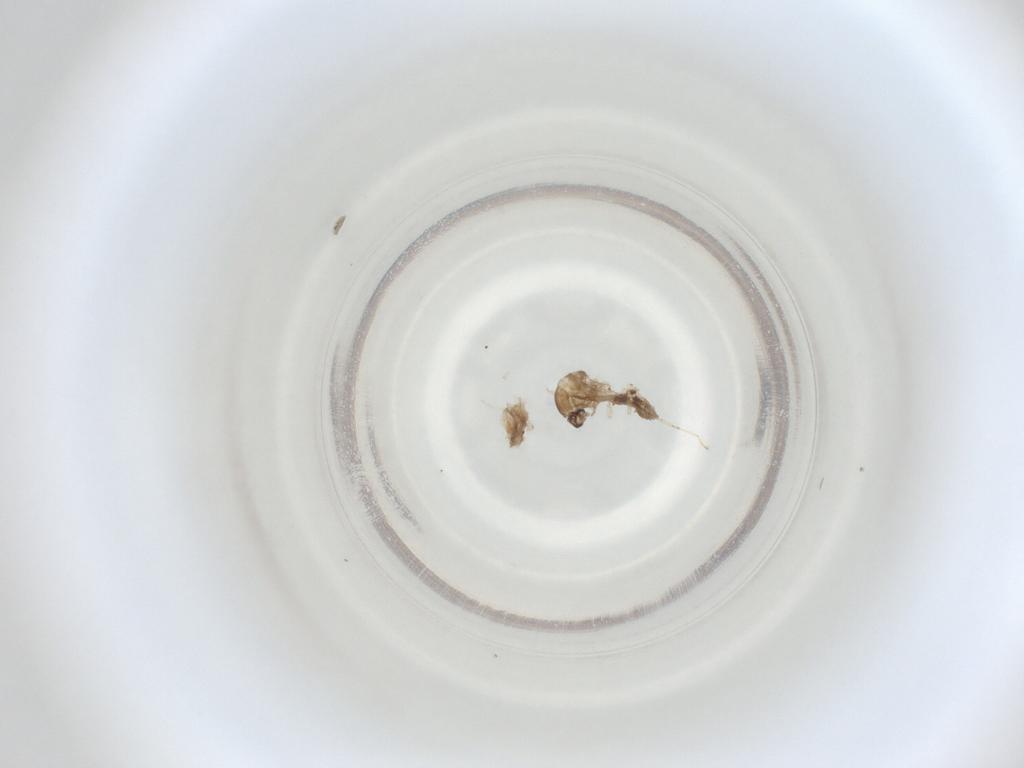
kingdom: Animalia
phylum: Arthropoda
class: Insecta
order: Diptera
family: Cecidomyiidae
